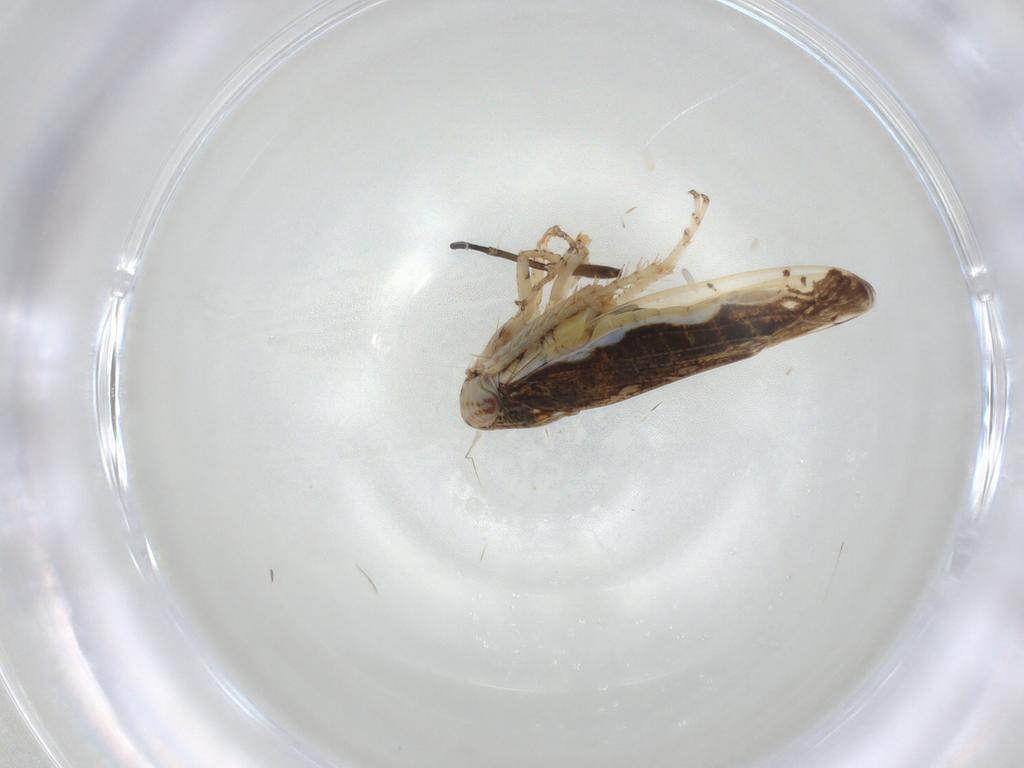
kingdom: Animalia
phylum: Arthropoda
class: Insecta
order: Hemiptera
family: Cicadellidae
